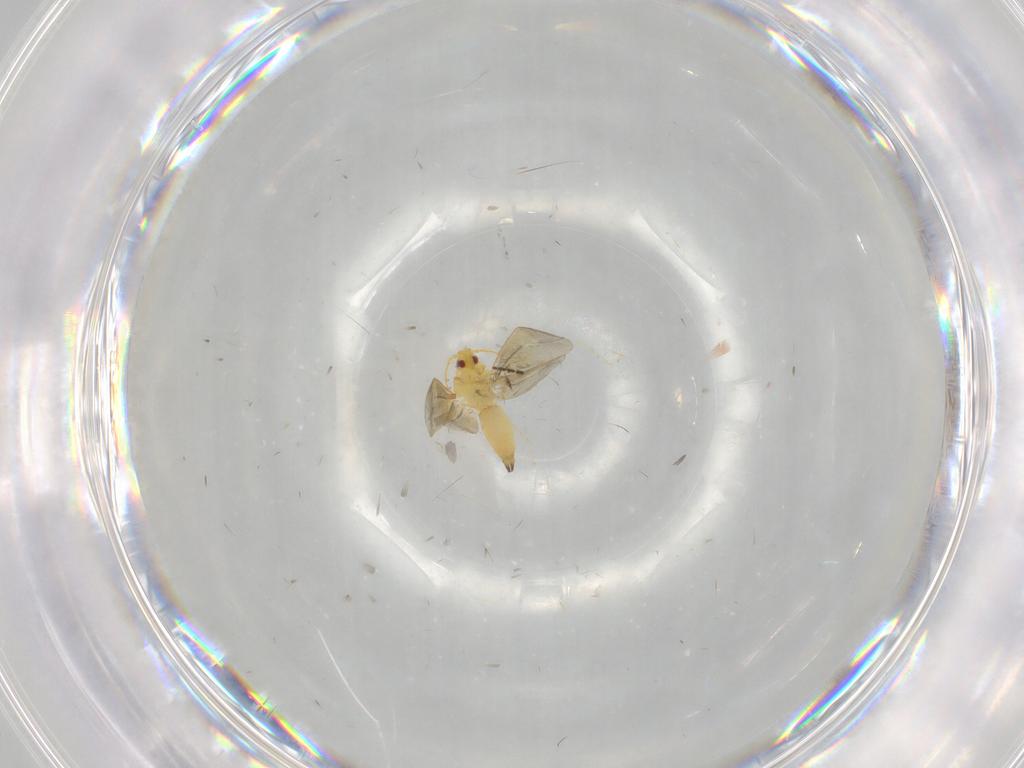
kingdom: Animalia
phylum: Arthropoda
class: Insecta
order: Hemiptera
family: Aleyrodidae
